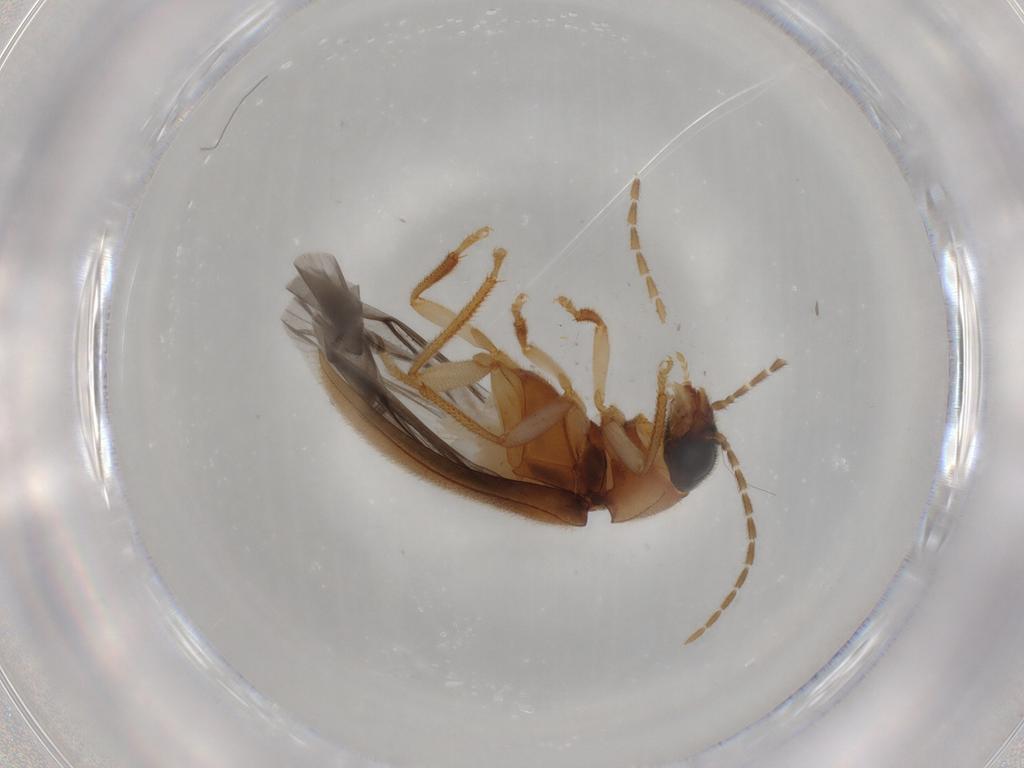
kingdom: Animalia
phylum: Arthropoda
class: Insecta
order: Coleoptera
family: Ptilodactylidae
